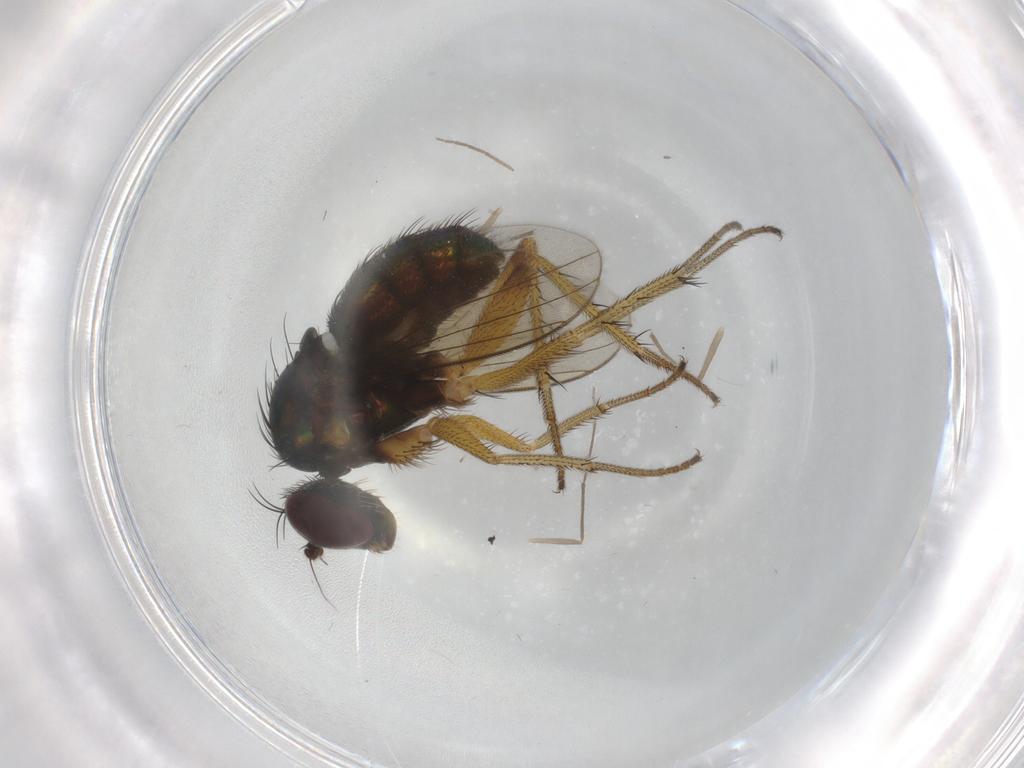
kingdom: Animalia
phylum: Arthropoda
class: Insecta
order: Diptera
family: Dolichopodidae
